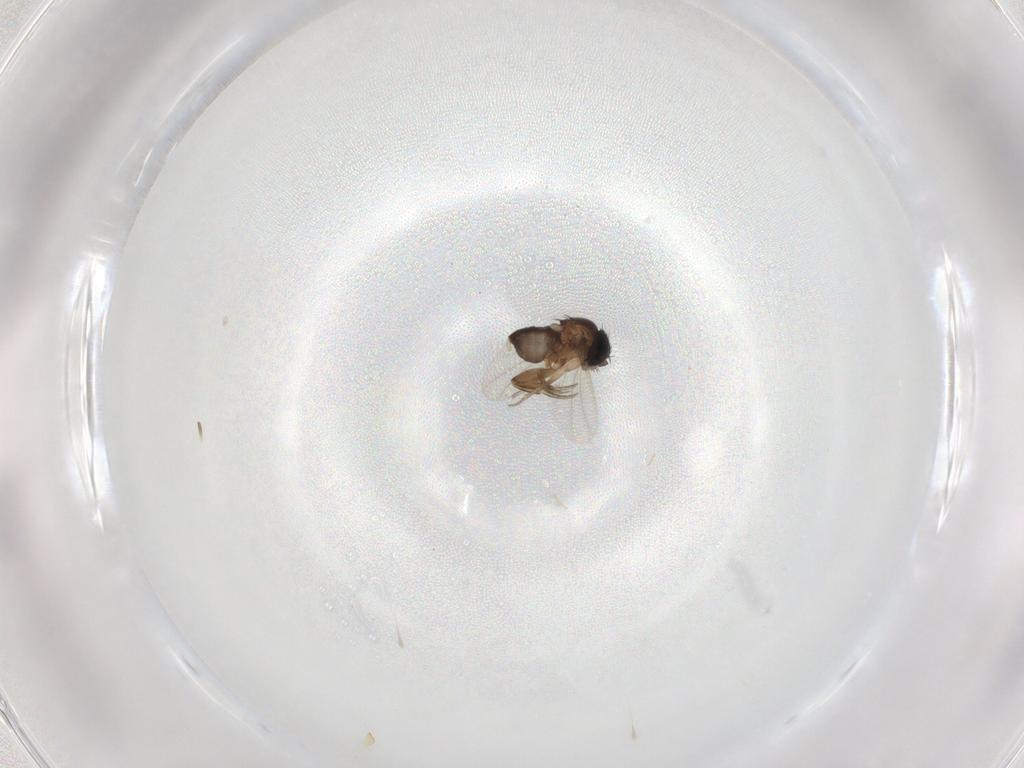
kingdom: Animalia
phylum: Arthropoda
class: Insecta
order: Diptera
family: Phoridae
